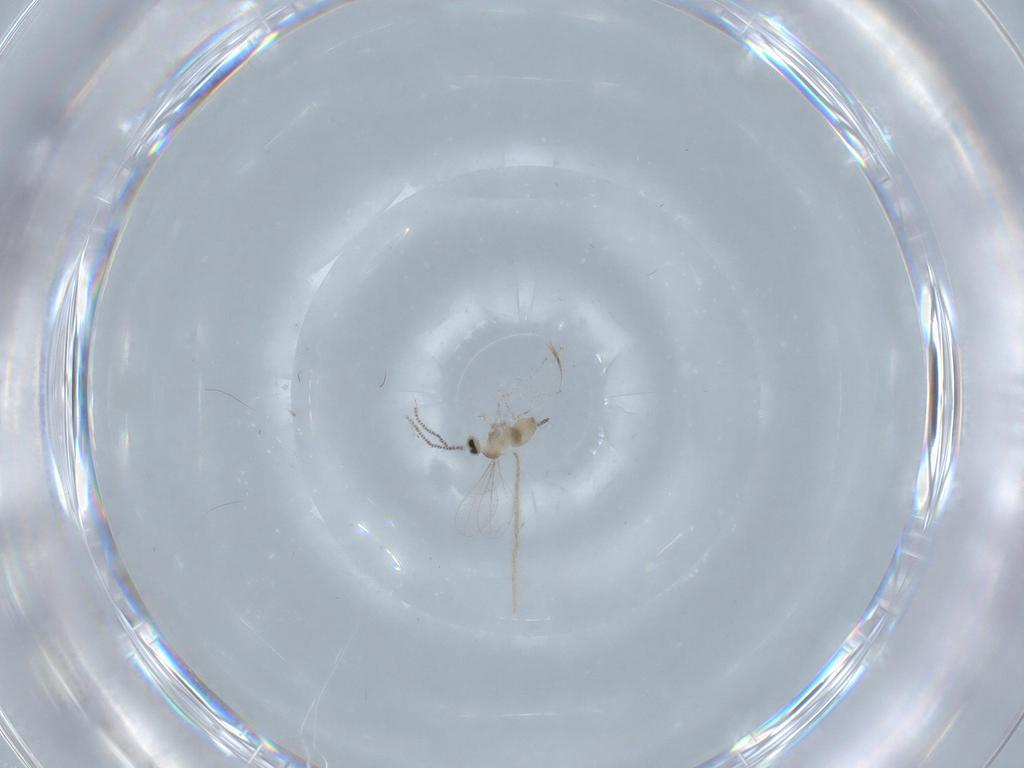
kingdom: Animalia
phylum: Arthropoda
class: Insecta
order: Diptera
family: Cecidomyiidae
